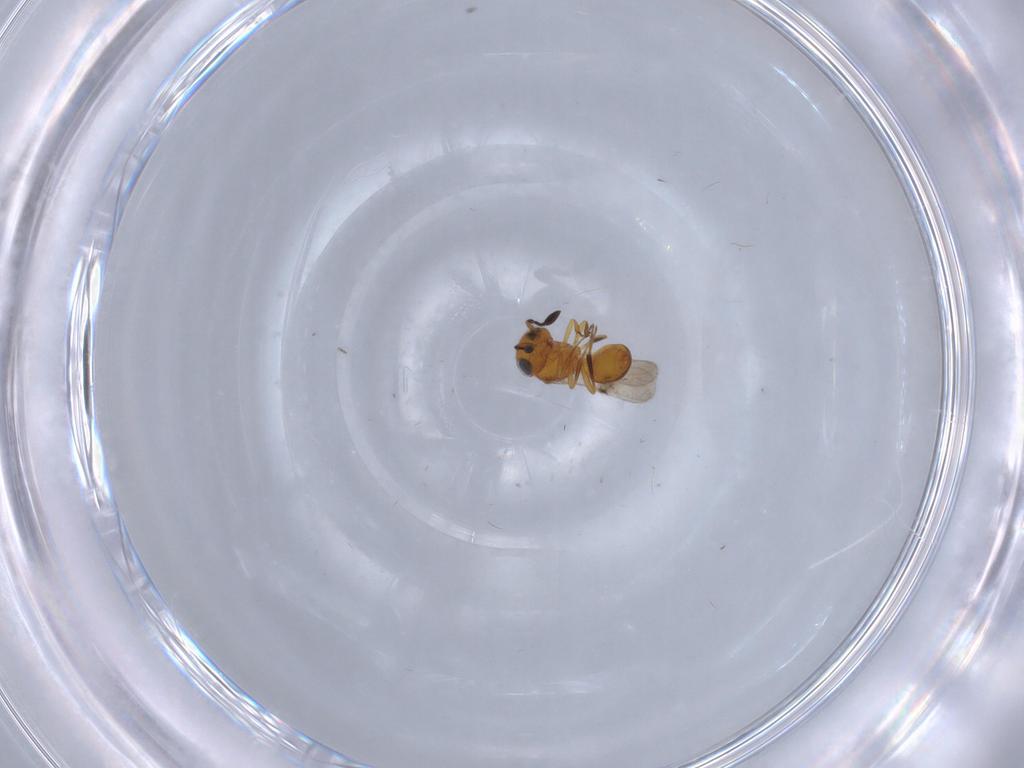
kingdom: Animalia
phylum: Arthropoda
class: Insecta
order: Hymenoptera
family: Scelionidae
